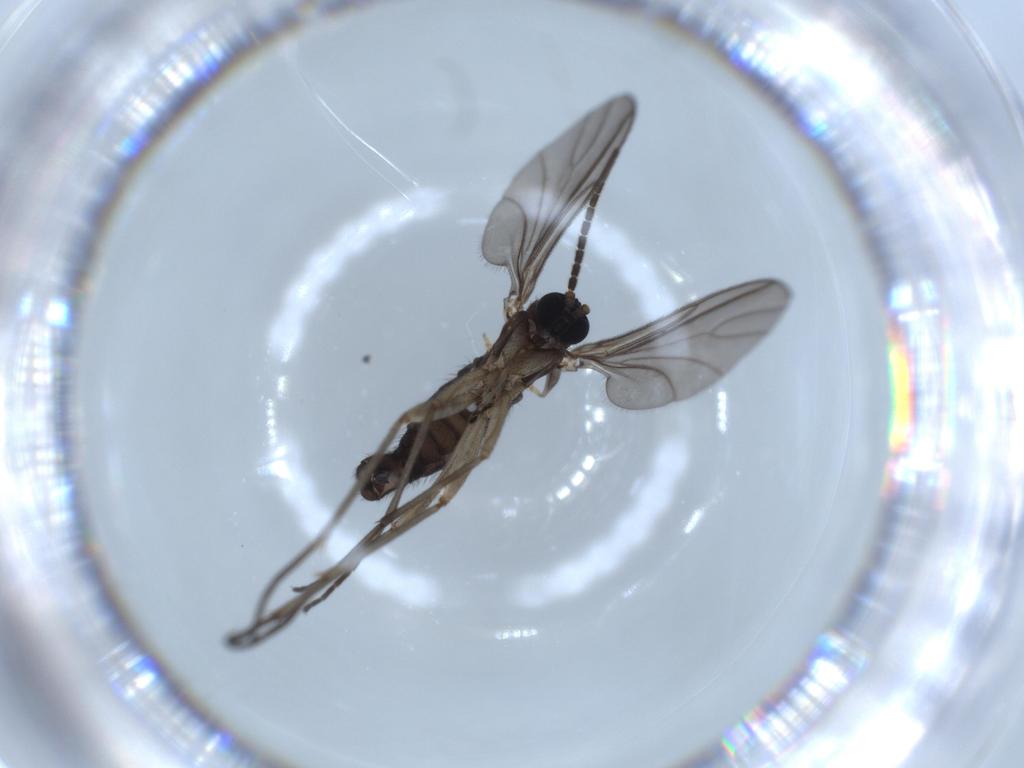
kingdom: Animalia
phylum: Arthropoda
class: Insecta
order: Diptera
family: Sciaridae
